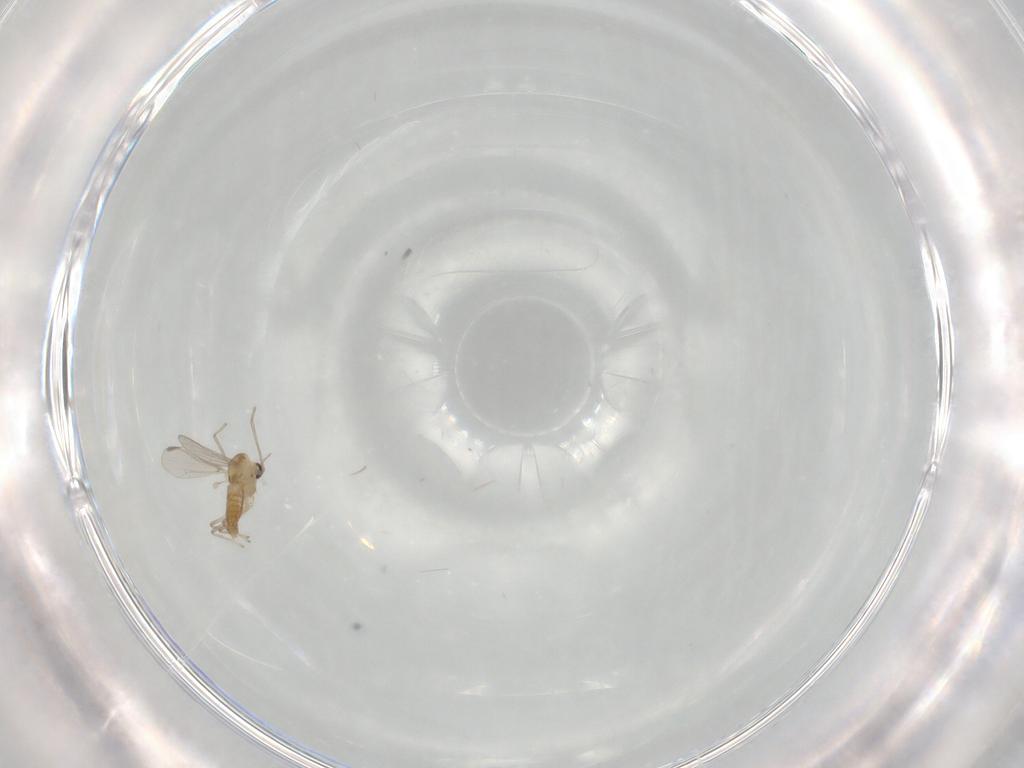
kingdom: Animalia
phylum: Arthropoda
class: Insecta
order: Diptera
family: Chironomidae
